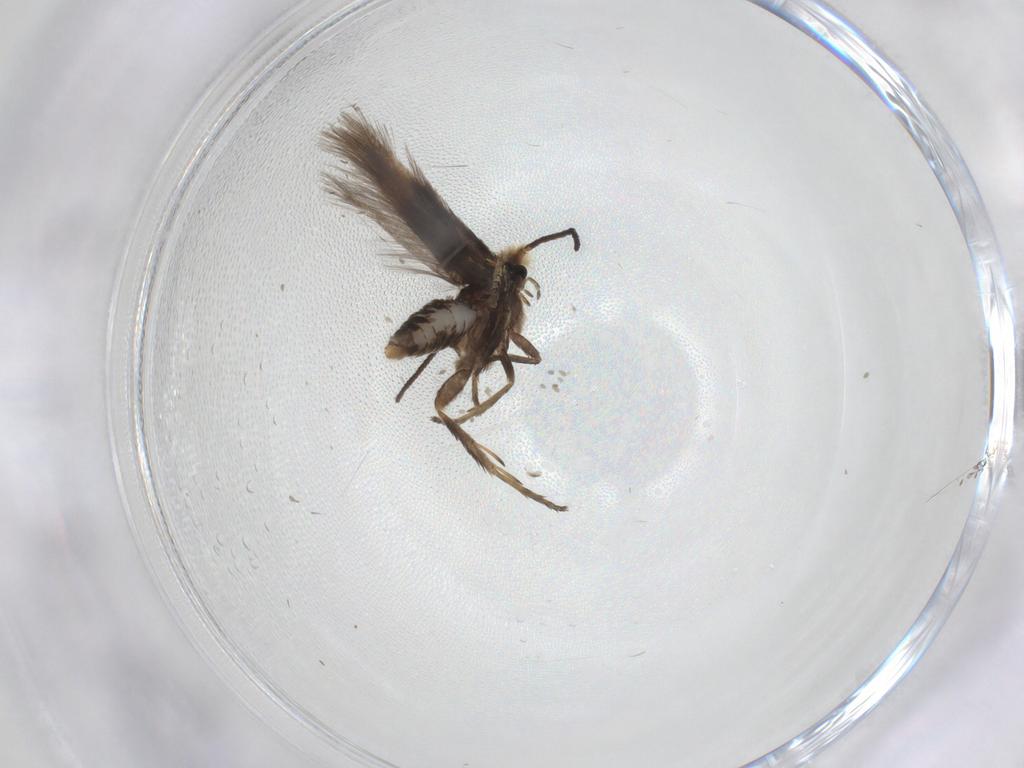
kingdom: Animalia
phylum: Arthropoda
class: Insecta
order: Lepidoptera
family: Nepticulidae
